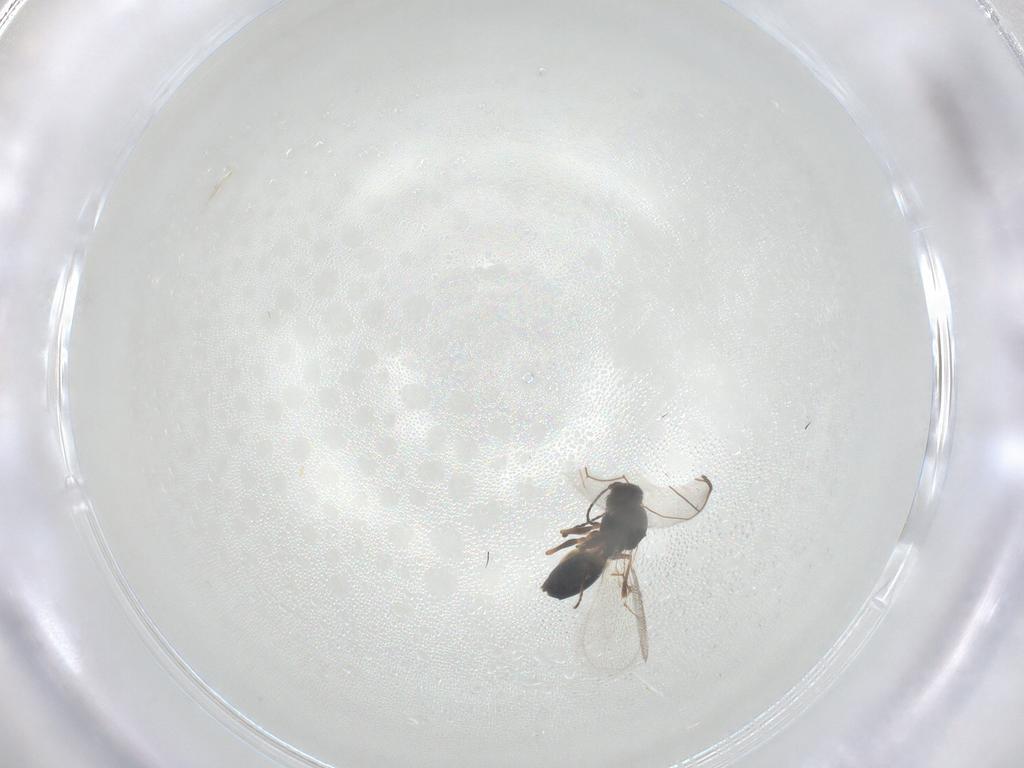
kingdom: Animalia
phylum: Arthropoda
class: Insecta
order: Hymenoptera
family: Figitidae
